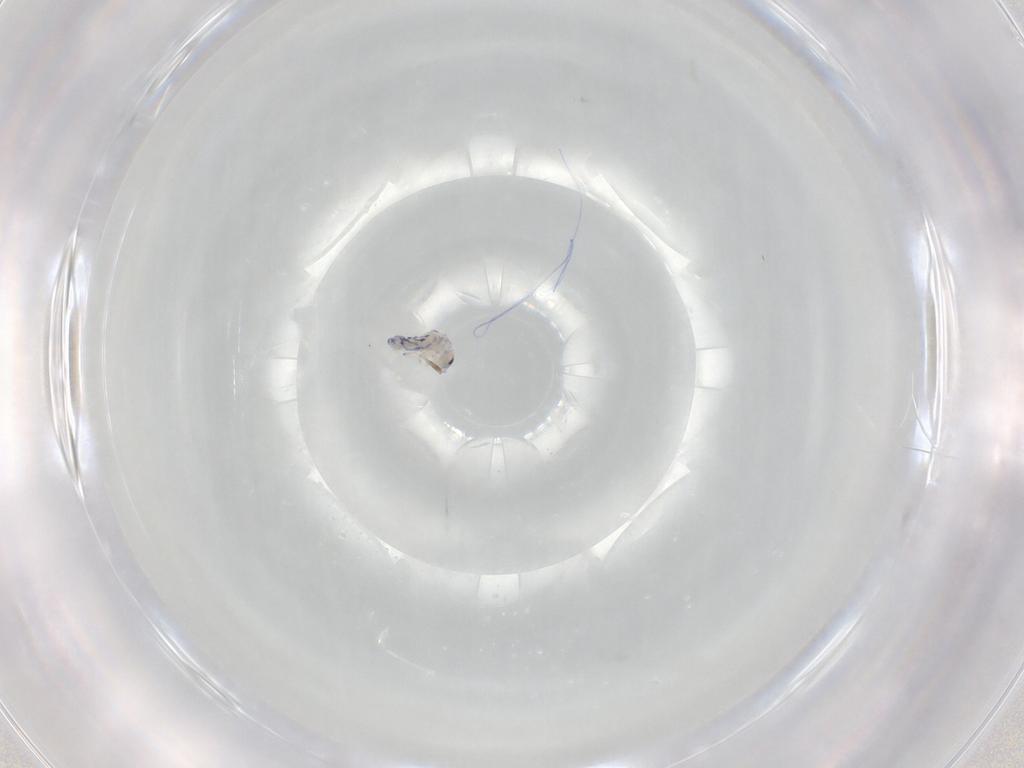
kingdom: Animalia
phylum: Arthropoda
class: Collembola
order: Entomobryomorpha
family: Entomobryidae
